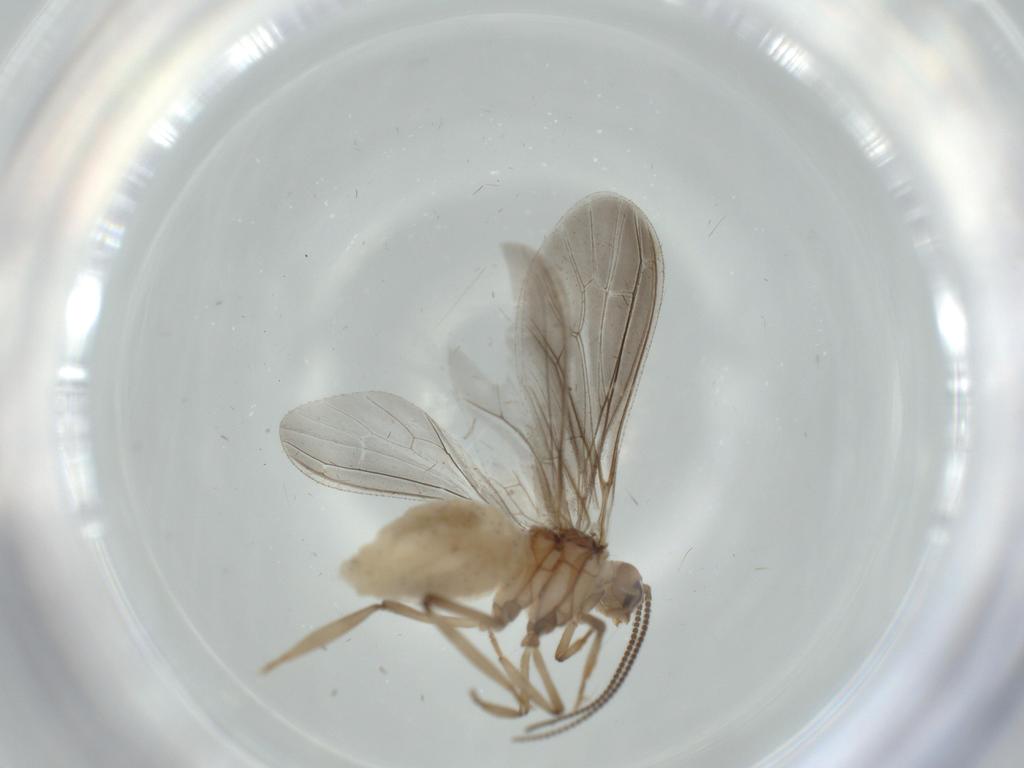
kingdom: Animalia
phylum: Arthropoda
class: Insecta
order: Neuroptera
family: Coniopterygidae
